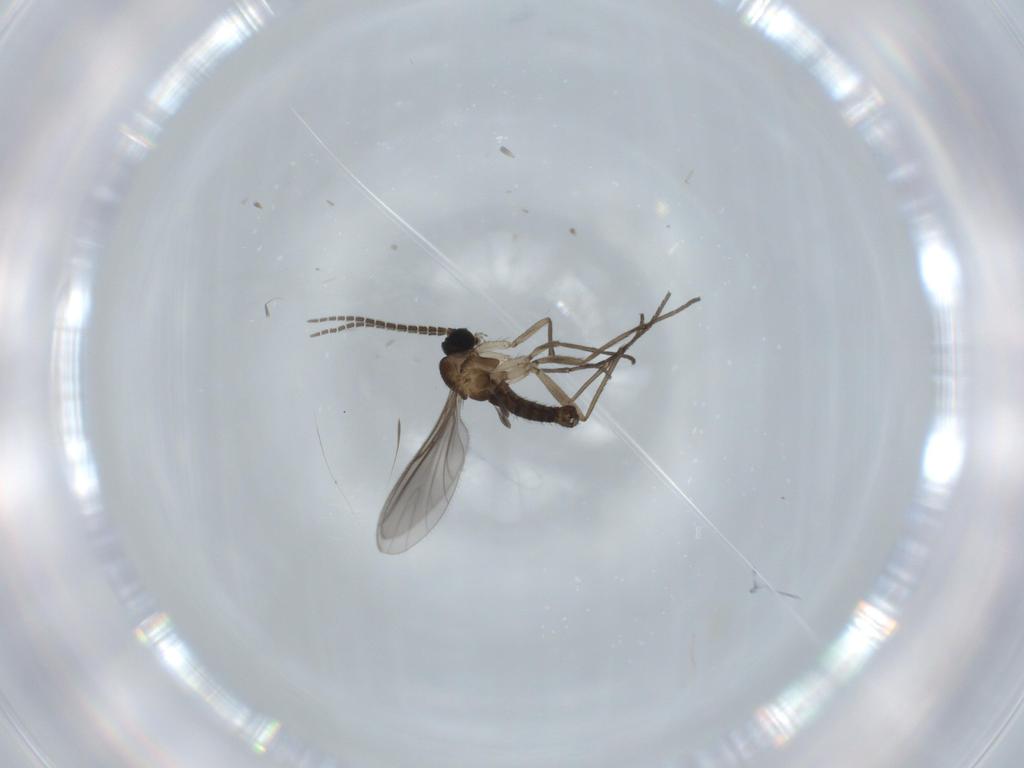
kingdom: Animalia
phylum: Arthropoda
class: Insecta
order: Diptera
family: Sciaridae
